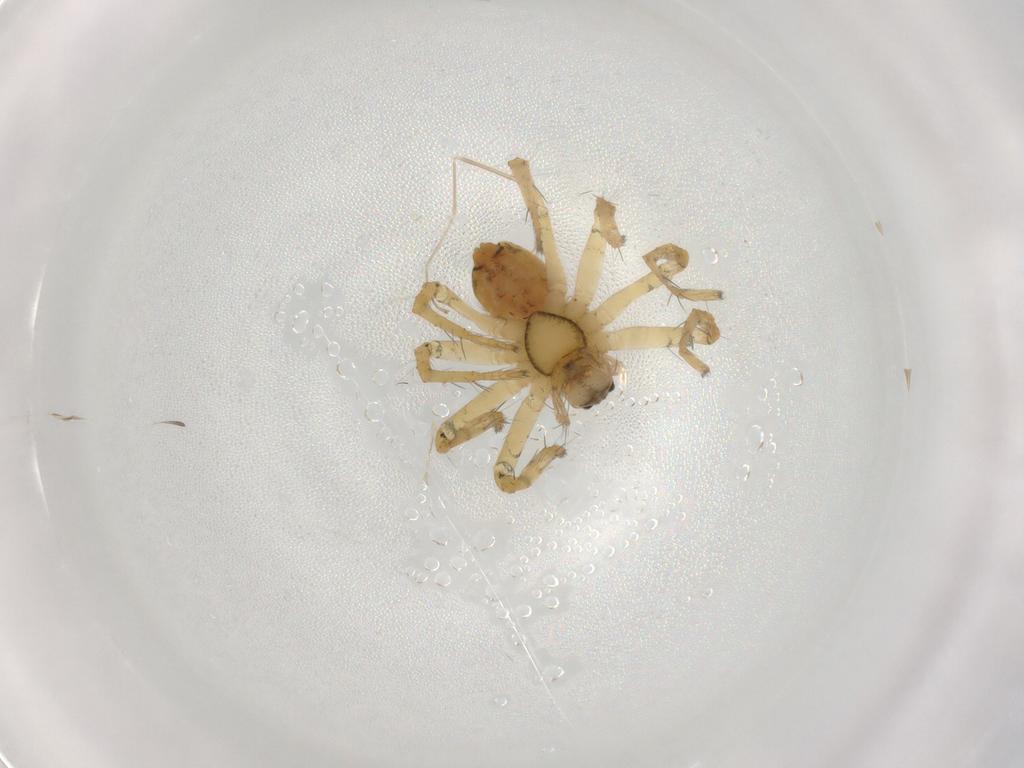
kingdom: Animalia
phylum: Arthropoda
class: Arachnida
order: Araneae
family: Pisauridae
